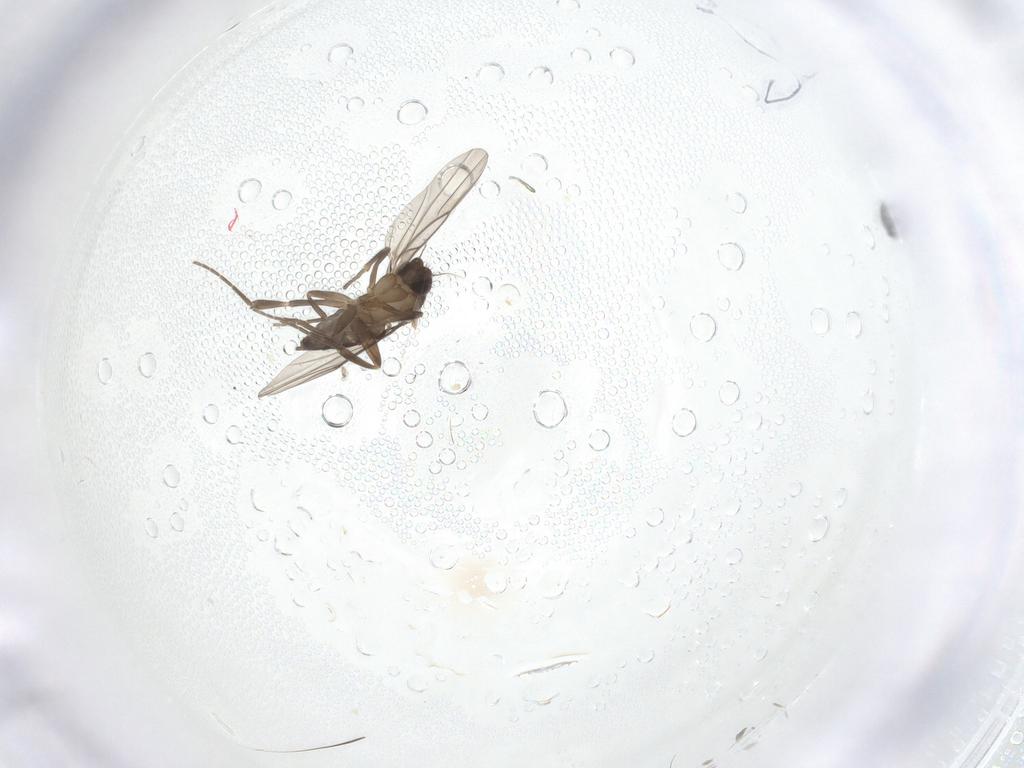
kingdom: Animalia
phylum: Arthropoda
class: Insecta
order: Diptera
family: Phoridae
